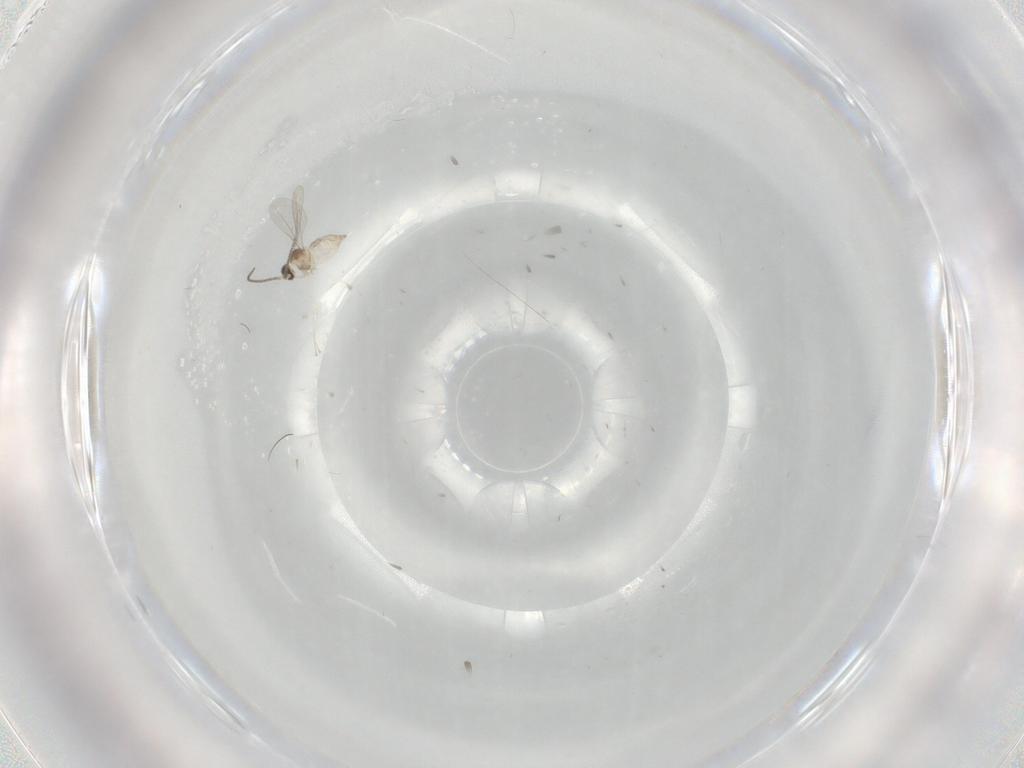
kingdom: Animalia
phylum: Arthropoda
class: Insecta
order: Diptera
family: Cecidomyiidae
